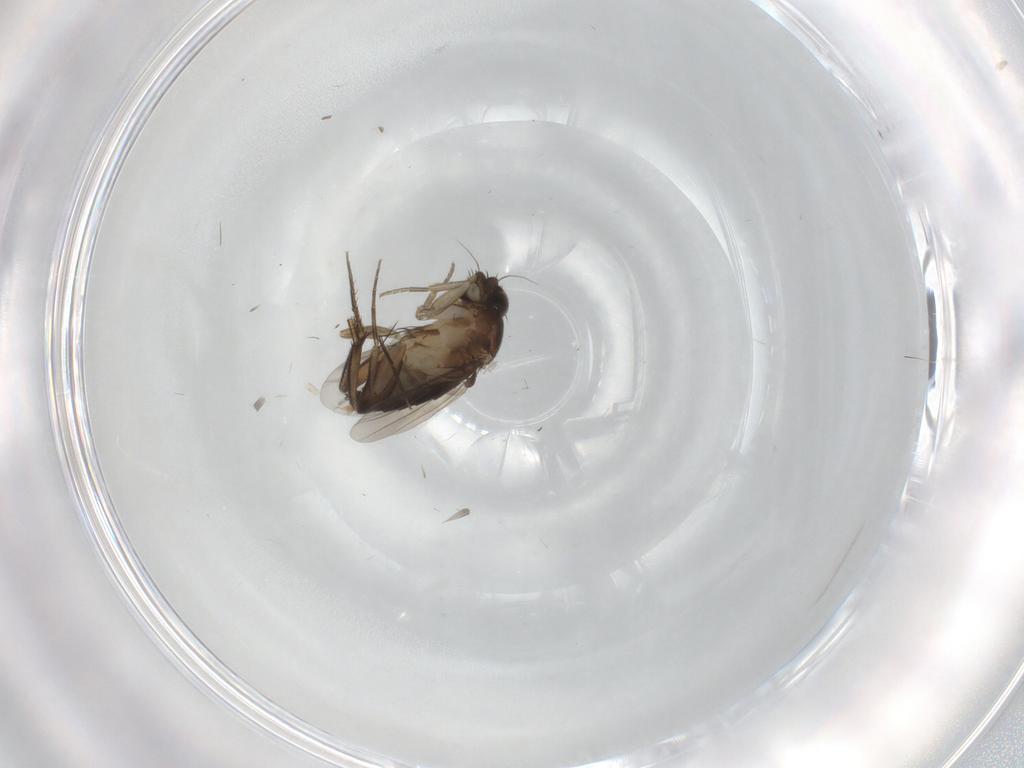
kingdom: Animalia
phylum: Arthropoda
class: Insecta
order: Diptera
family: Phoridae
